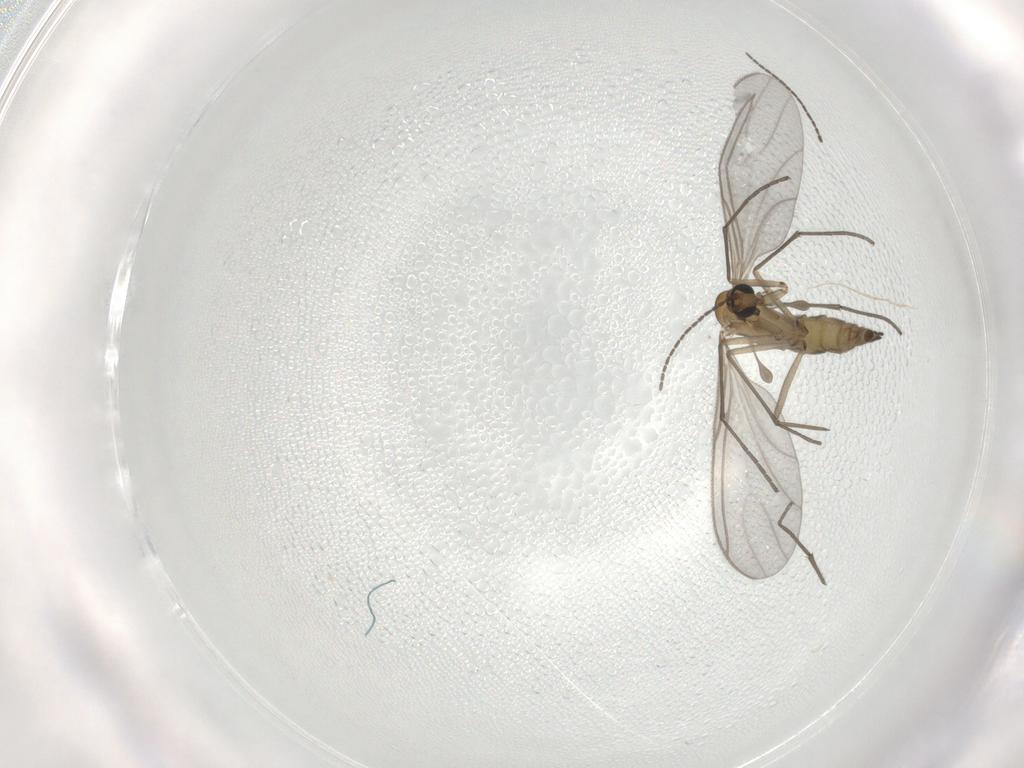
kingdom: Animalia
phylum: Arthropoda
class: Insecta
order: Diptera
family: Sciaridae
